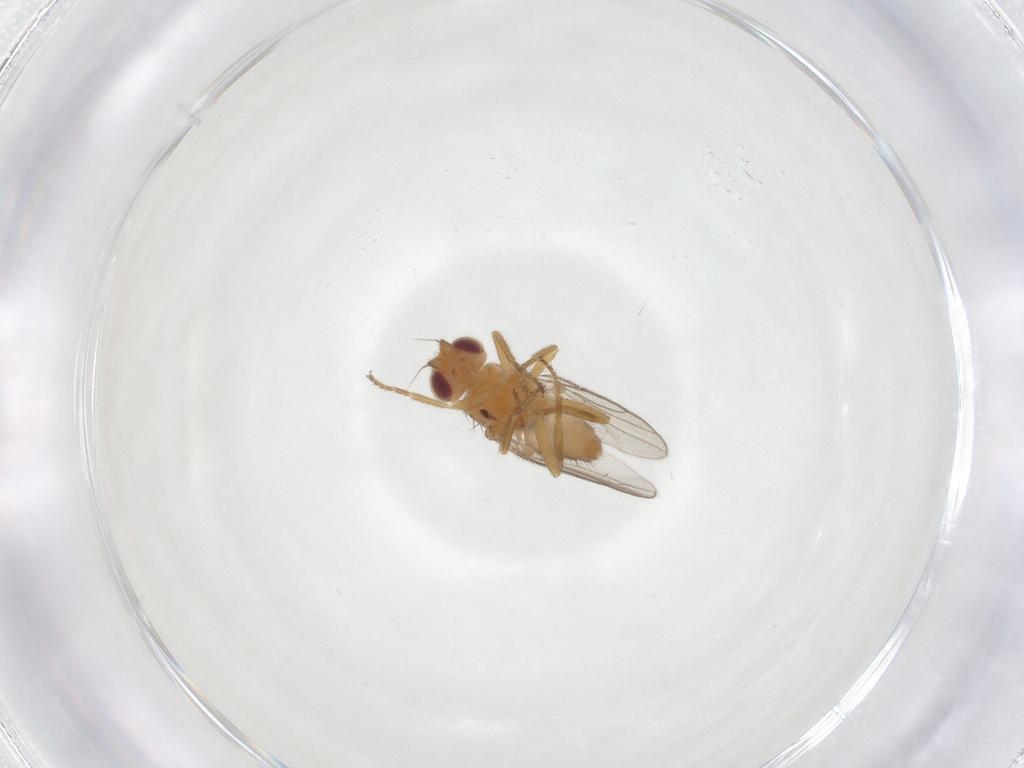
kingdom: Animalia
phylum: Arthropoda
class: Insecta
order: Diptera
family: Chloropidae
